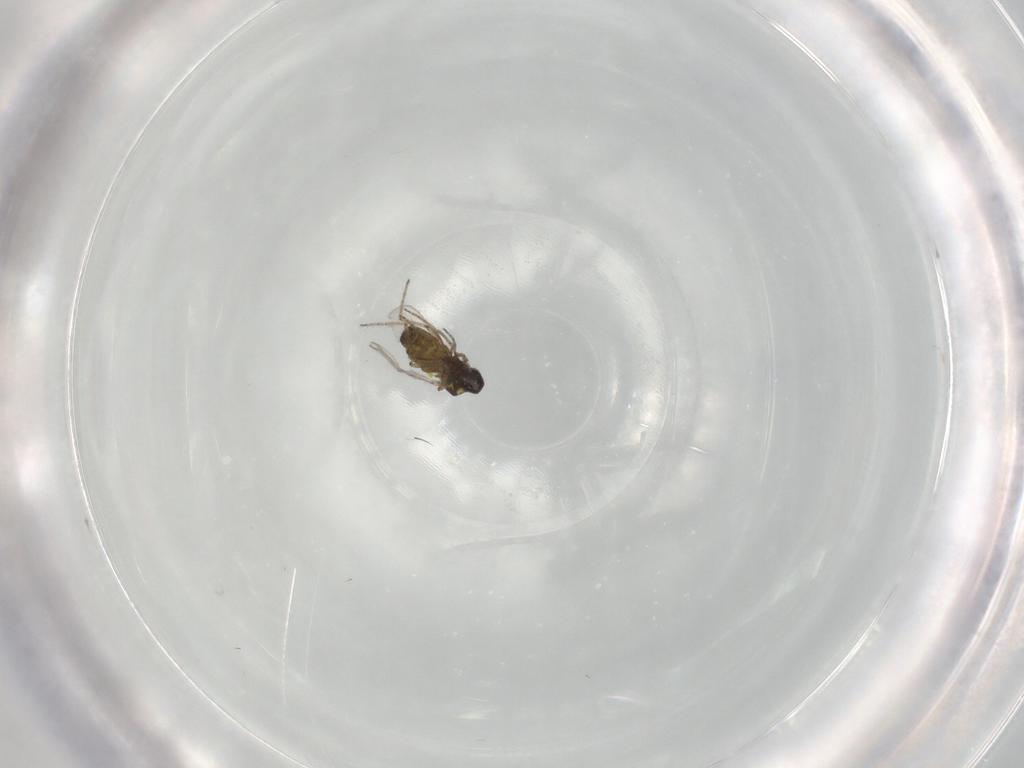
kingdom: Animalia
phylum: Arthropoda
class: Insecta
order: Diptera
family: Ceratopogonidae
